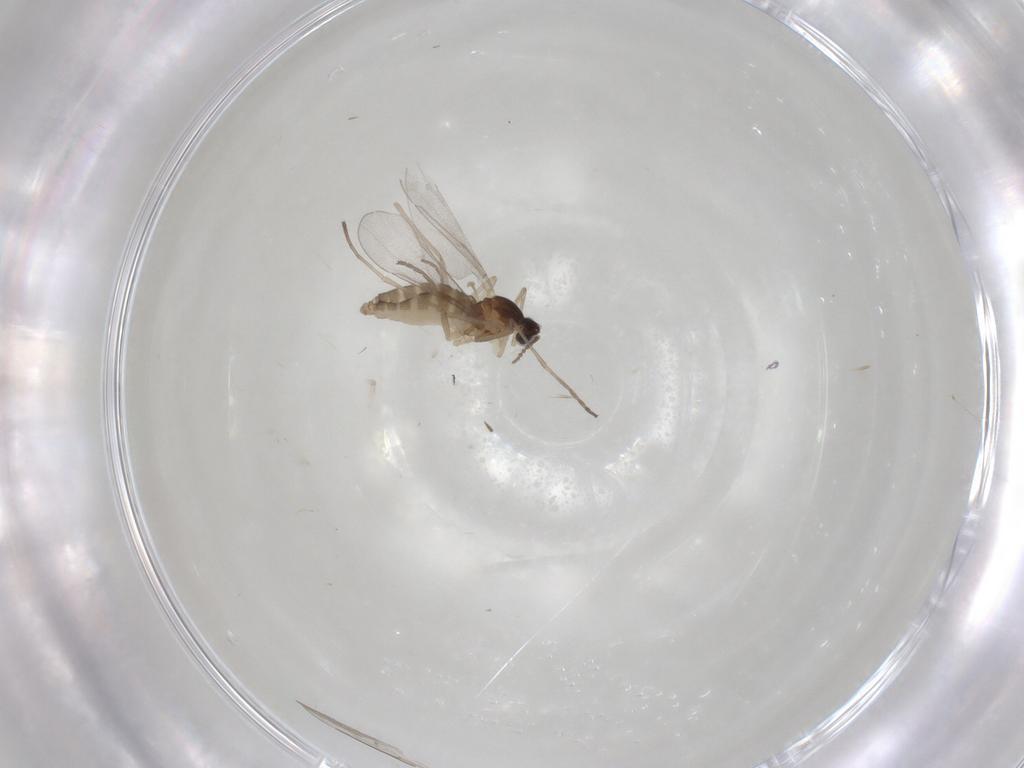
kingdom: Animalia
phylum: Arthropoda
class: Insecta
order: Diptera
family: Cecidomyiidae
